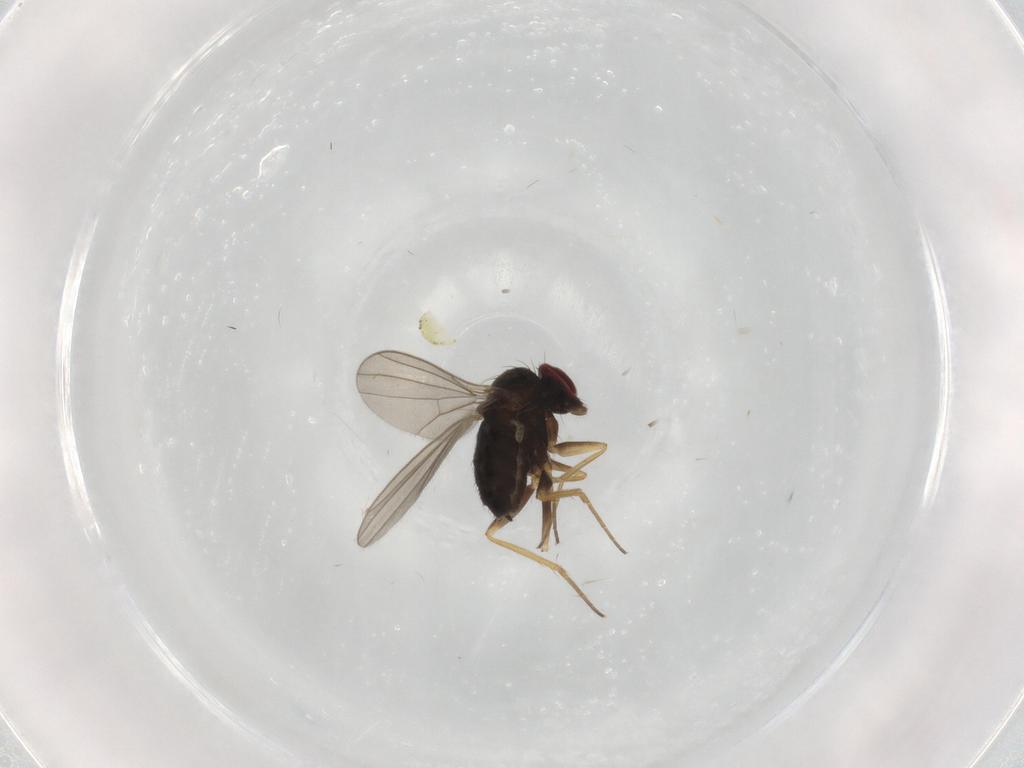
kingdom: Animalia
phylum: Arthropoda
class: Insecta
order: Diptera
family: Dolichopodidae
